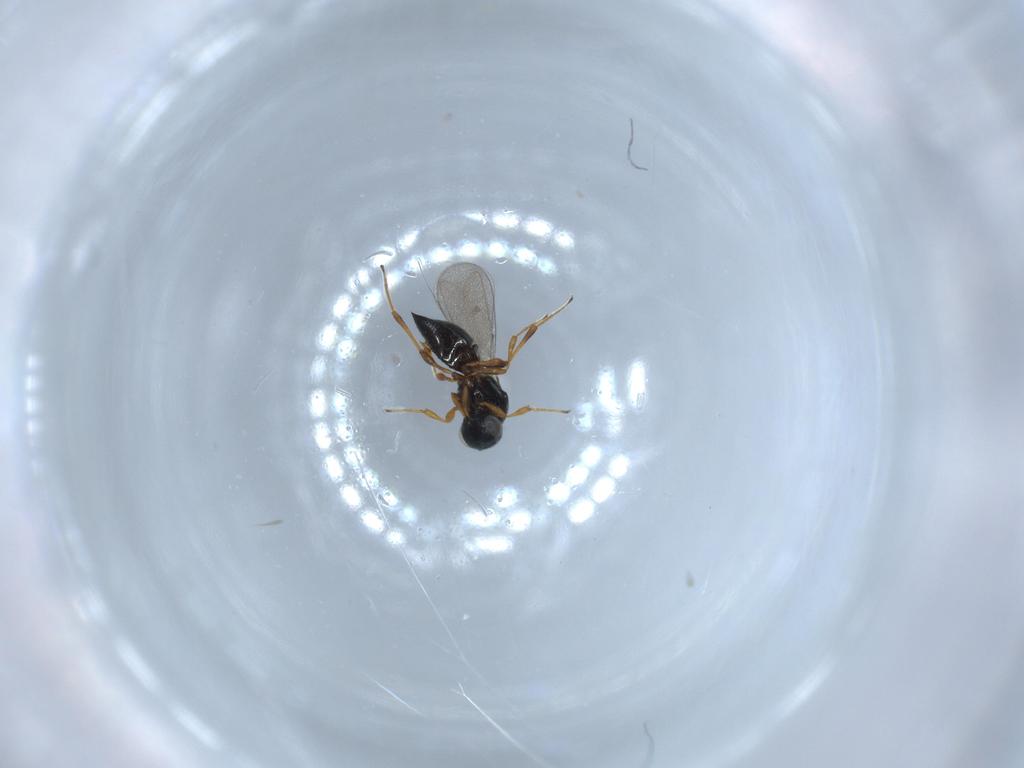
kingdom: Animalia
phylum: Arthropoda
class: Insecta
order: Hymenoptera
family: Platygastridae
